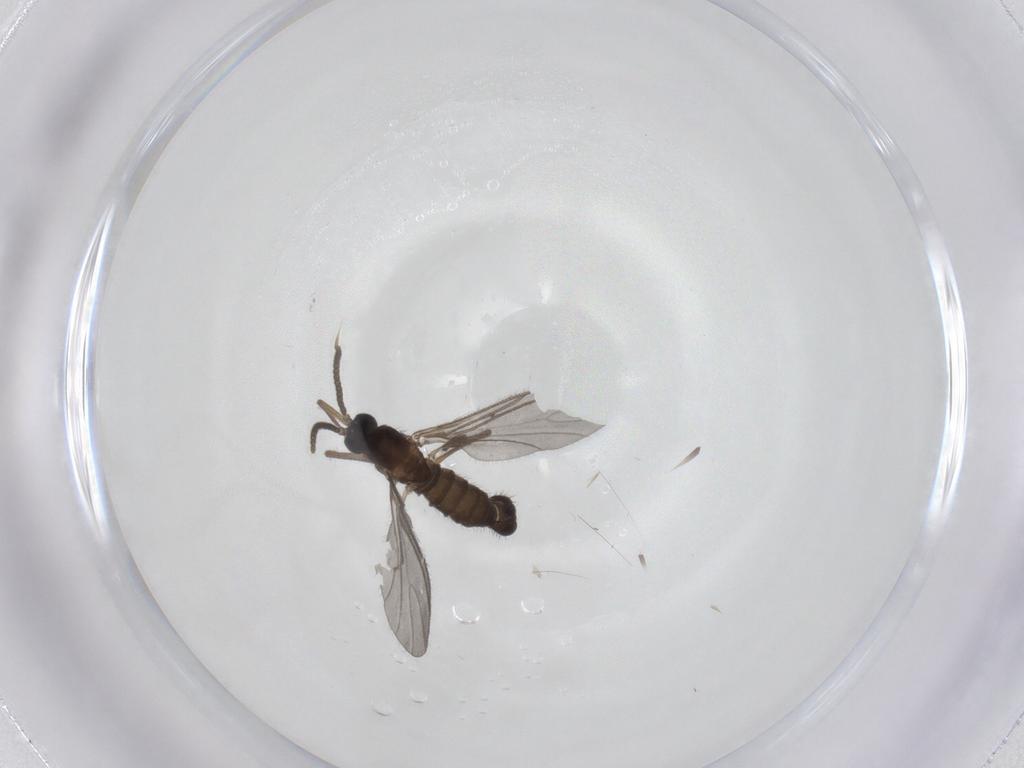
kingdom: Animalia
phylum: Arthropoda
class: Insecta
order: Diptera
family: Sciaridae
